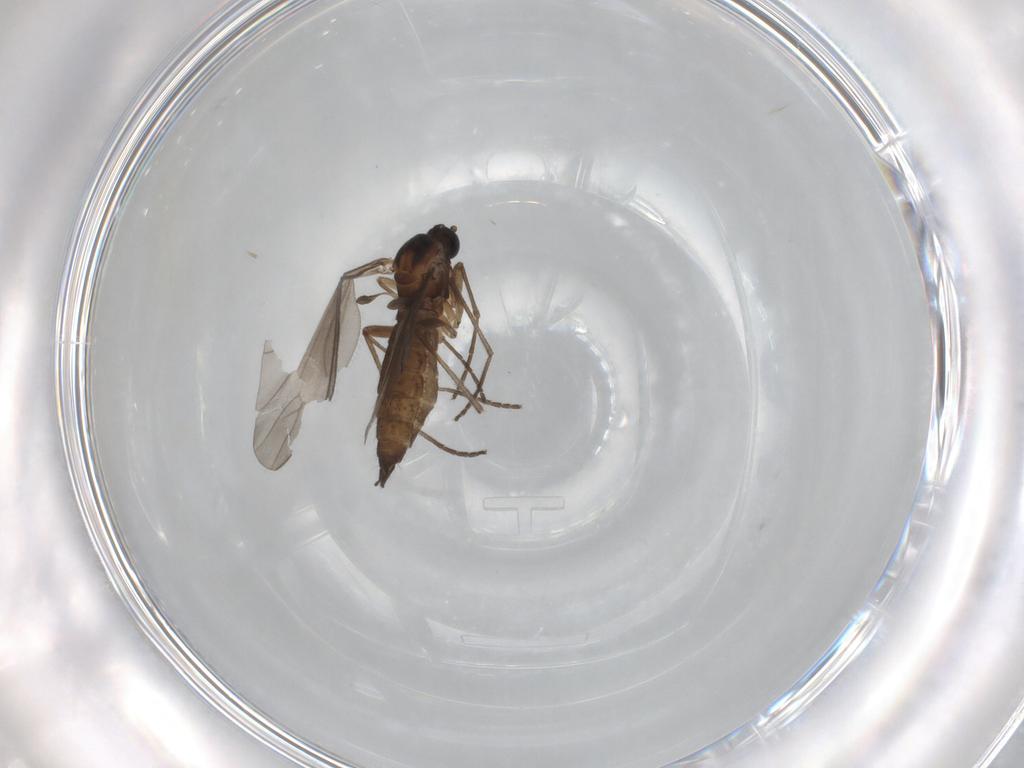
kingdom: Animalia
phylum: Arthropoda
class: Insecta
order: Diptera
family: Sciaridae
